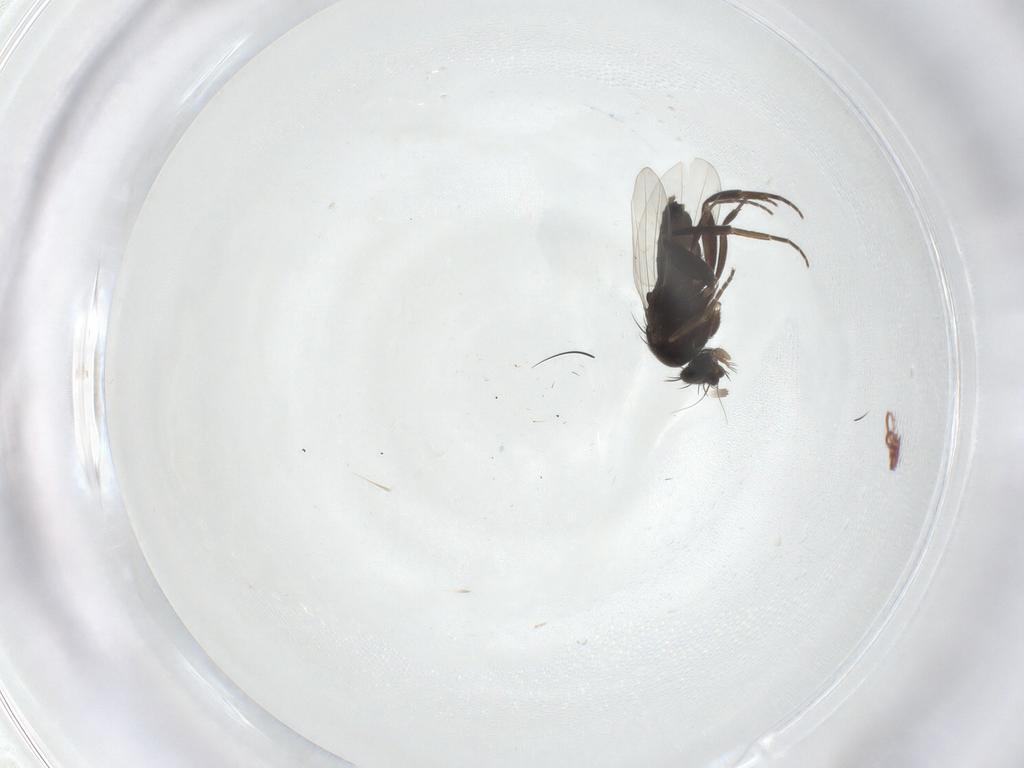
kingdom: Animalia
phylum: Arthropoda
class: Insecta
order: Diptera
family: Phoridae
